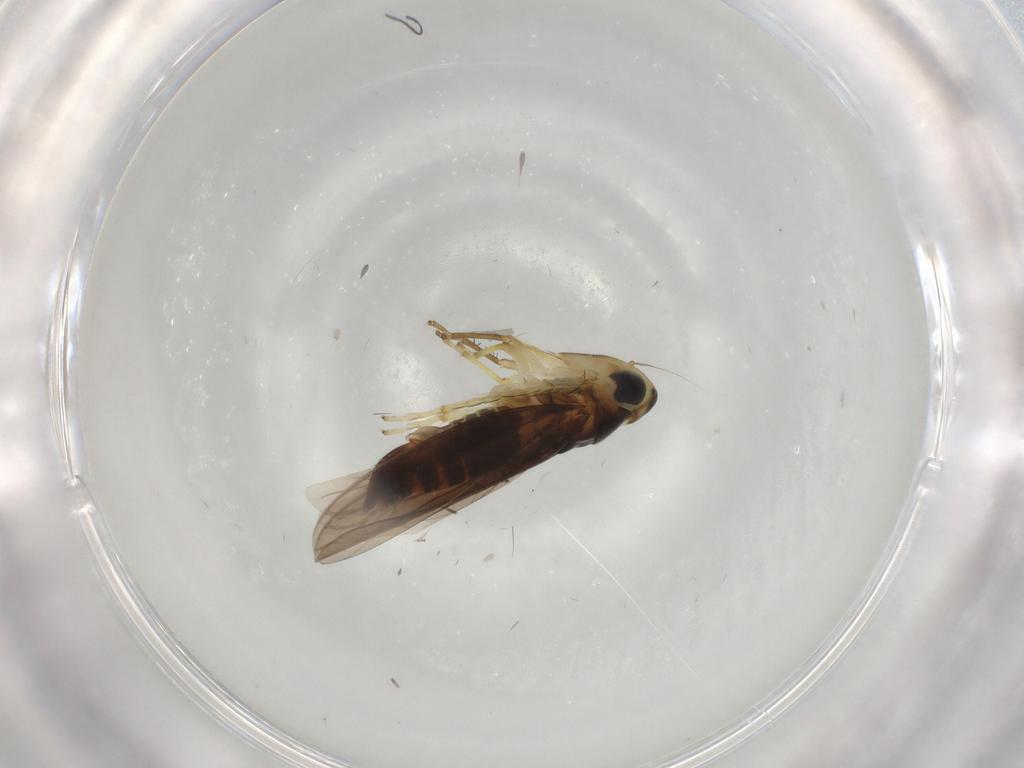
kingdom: Animalia
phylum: Arthropoda
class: Insecta
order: Hemiptera
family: Cicadellidae
